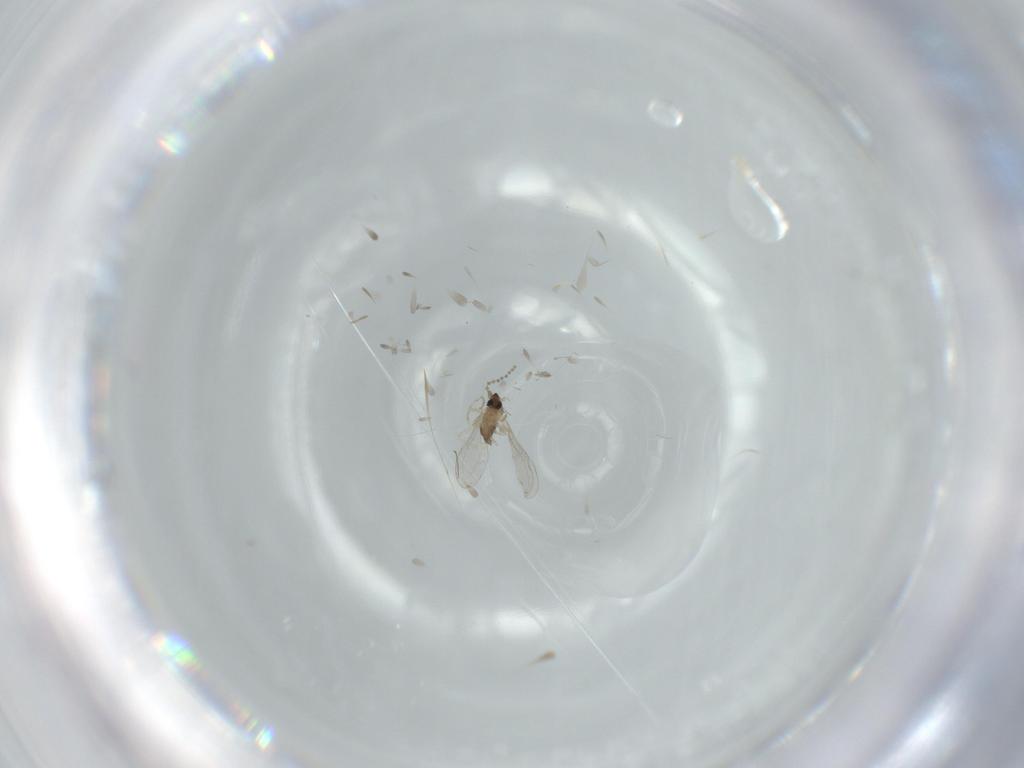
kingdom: Animalia
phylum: Arthropoda
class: Insecta
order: Diptera
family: Cecidomyiidae
